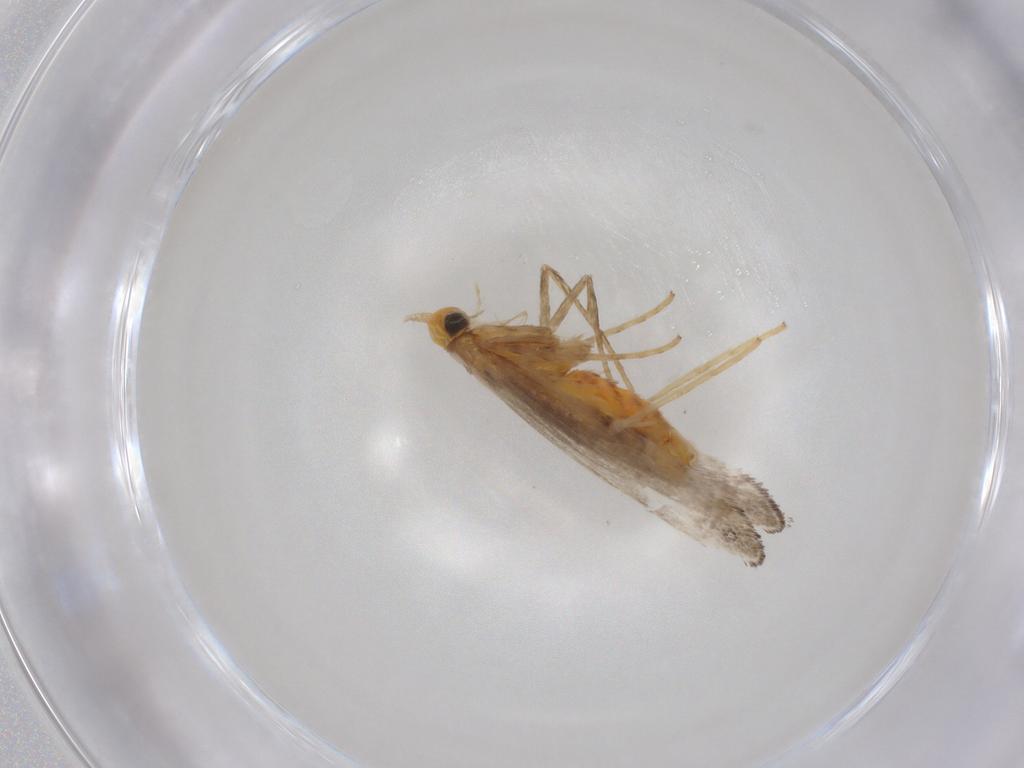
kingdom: Animalia
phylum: Arthropoda
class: Insecta
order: Lepidoptera
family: Gracillariidae
